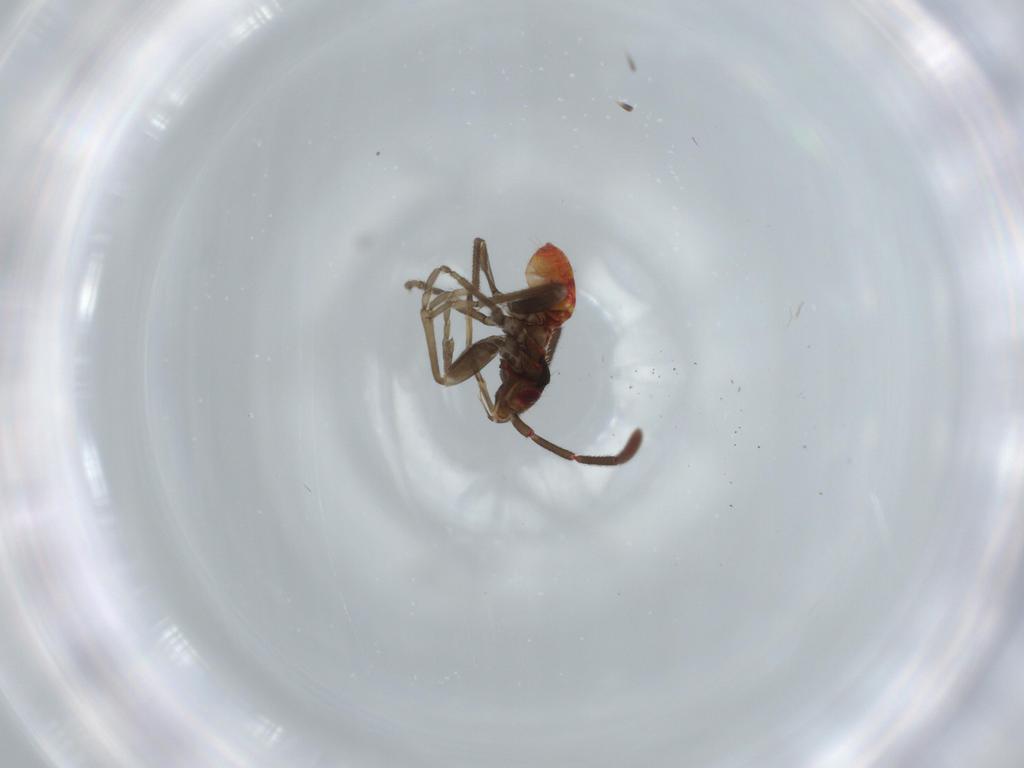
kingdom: Animalia
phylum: Arthropoda
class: Insecta
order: Hemiptera
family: Rhyparochromidae
